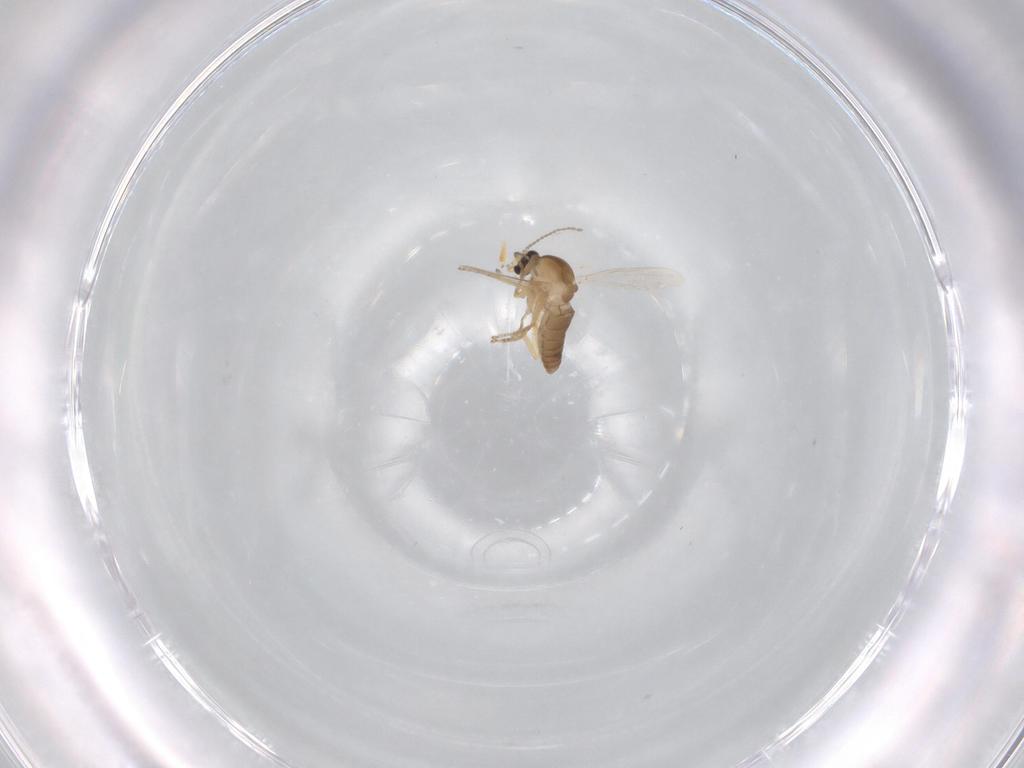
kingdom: Animalia
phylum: Arthropoda
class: Insecta
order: Diptera
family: Ceratopogonidae
